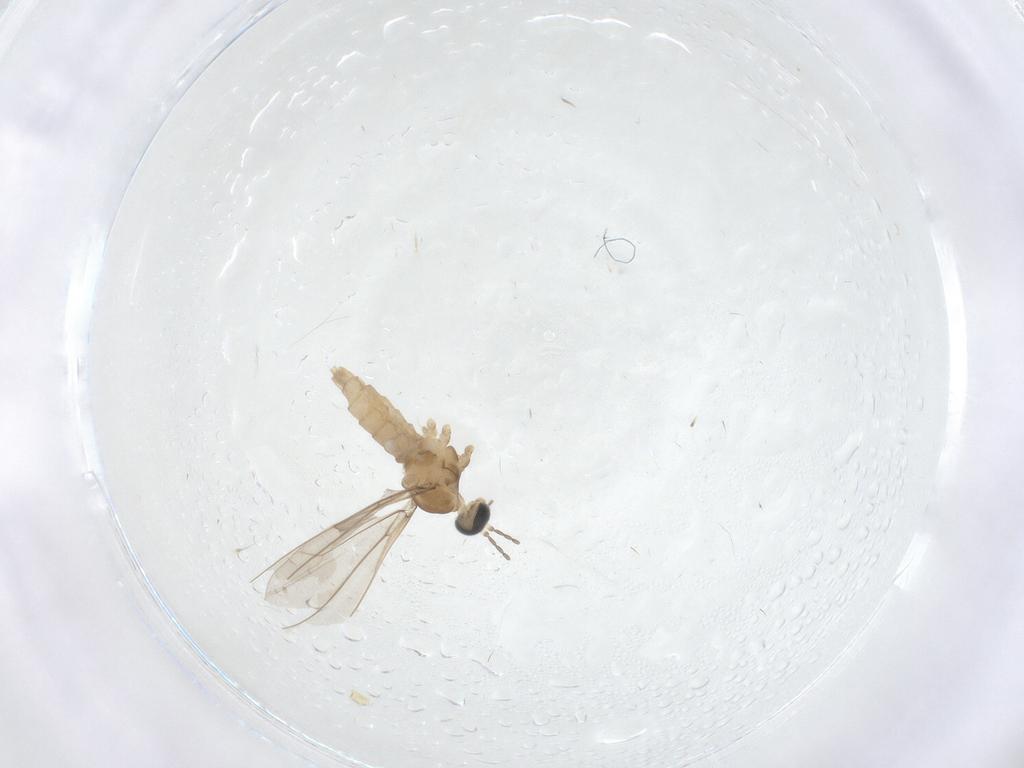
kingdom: Animalia
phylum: Arthropoda
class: Insecta
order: Diptera
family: Cecidomyiidae
